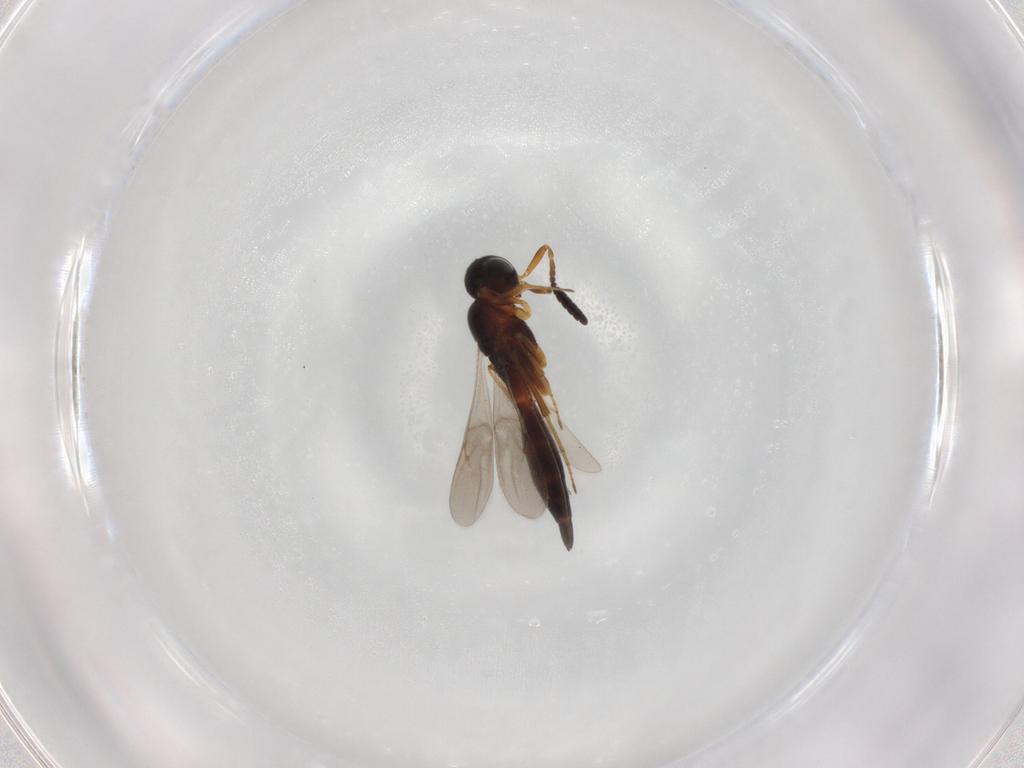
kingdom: Animalia
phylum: Arthropoda
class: Insecta
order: Hymenoptera
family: Scelionidae
